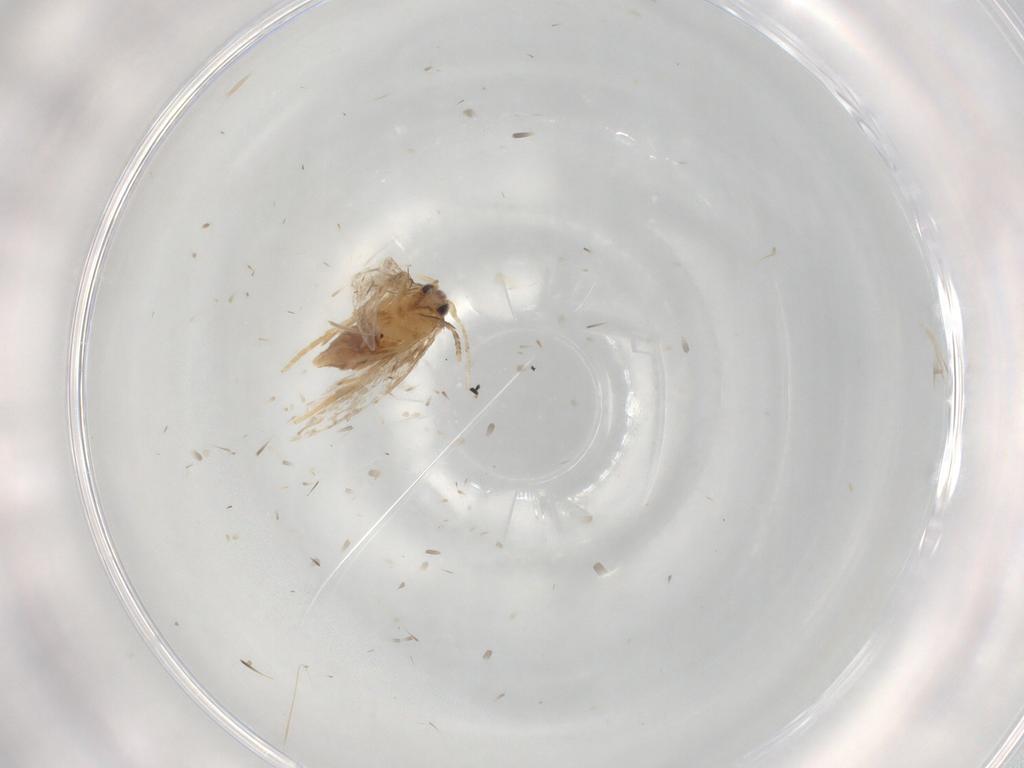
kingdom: Animalia
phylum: Arthropoda
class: Insecta
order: Lepidoptera
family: Nepticulidae
